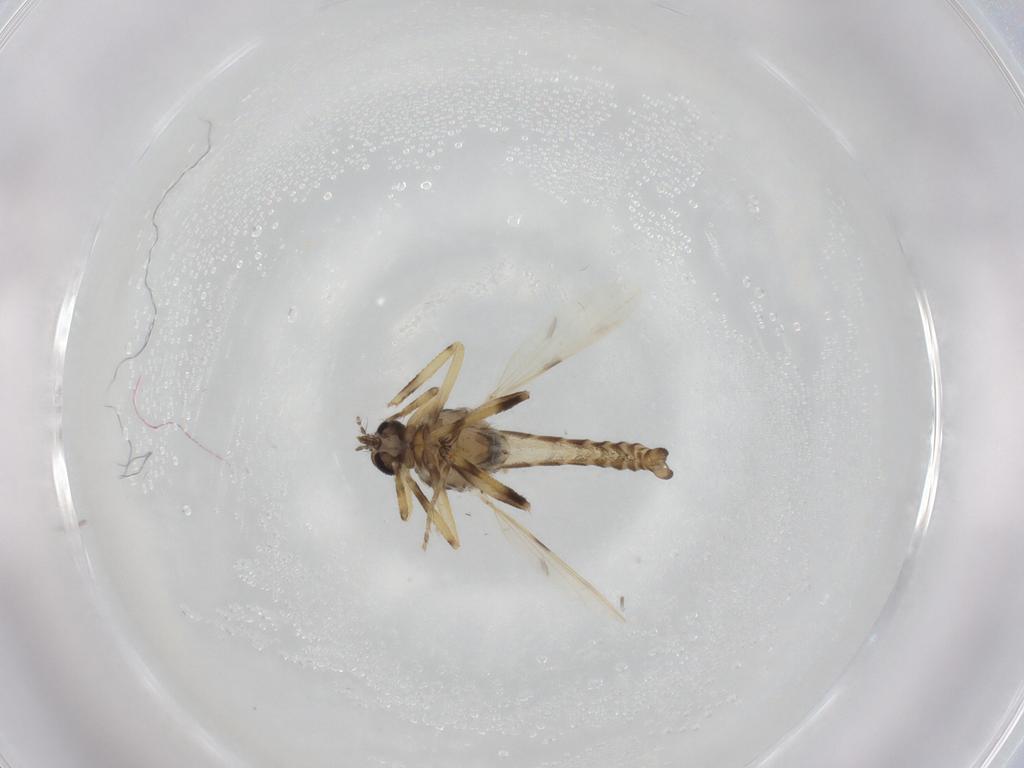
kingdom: Animalia
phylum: Arthropoda
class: Insecta
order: Diptera
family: Ceratopogonidae
